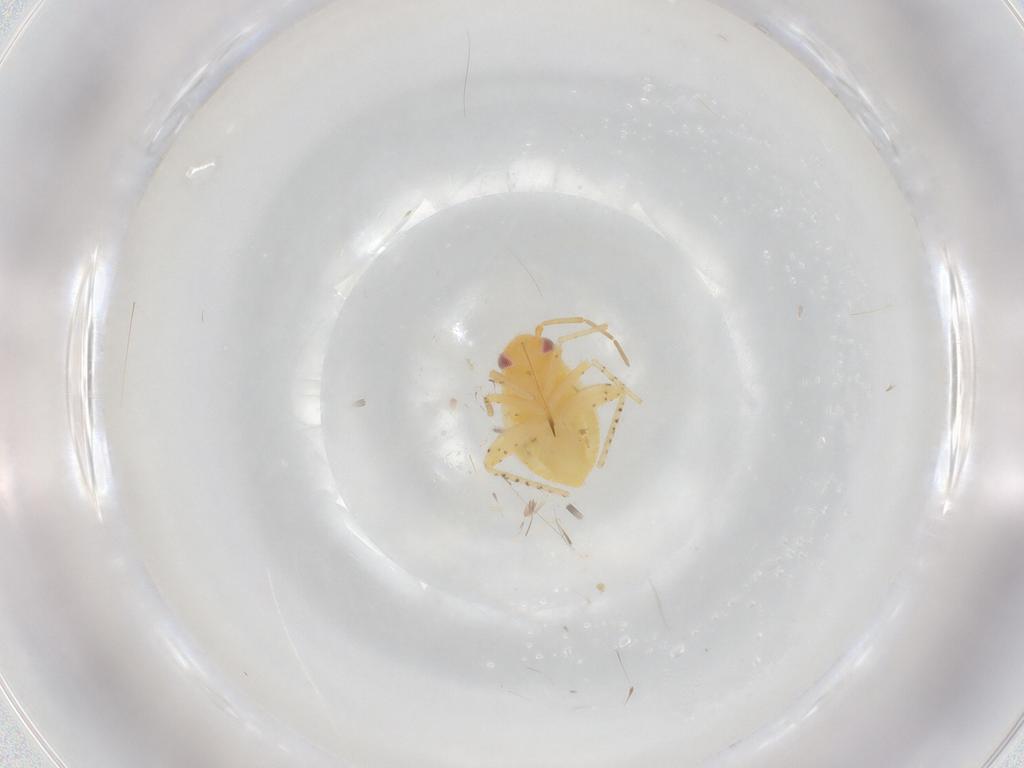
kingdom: Animalia
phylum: Arthropoda
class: Insecta
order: Hemiptera
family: Miridae
